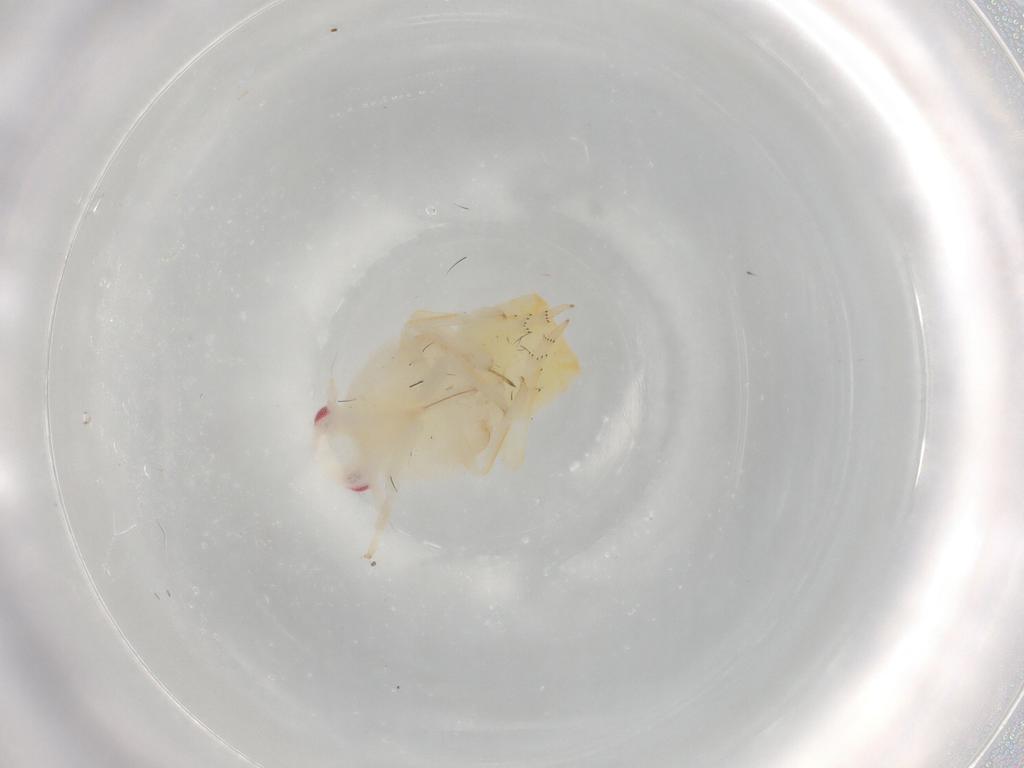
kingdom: Animalia
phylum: Arthropoda
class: Insecta
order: Hemiptera
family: Flatidae
